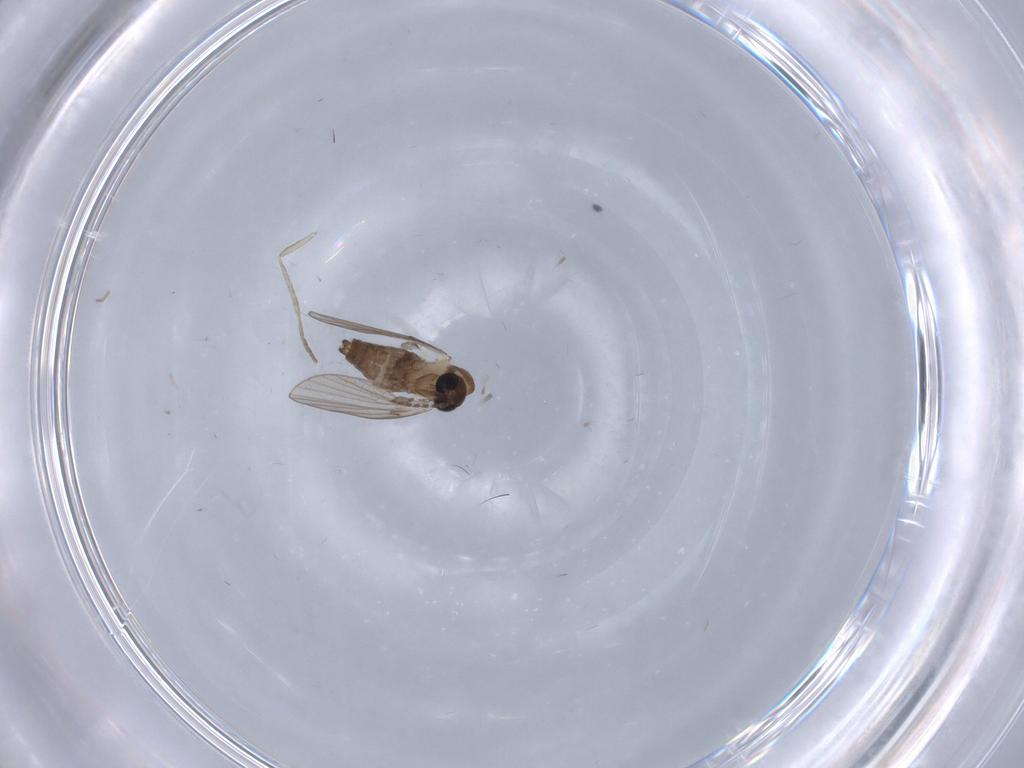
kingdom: Animalia
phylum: Arthropoda
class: Insecta
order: Diptera
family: Psychodidae
